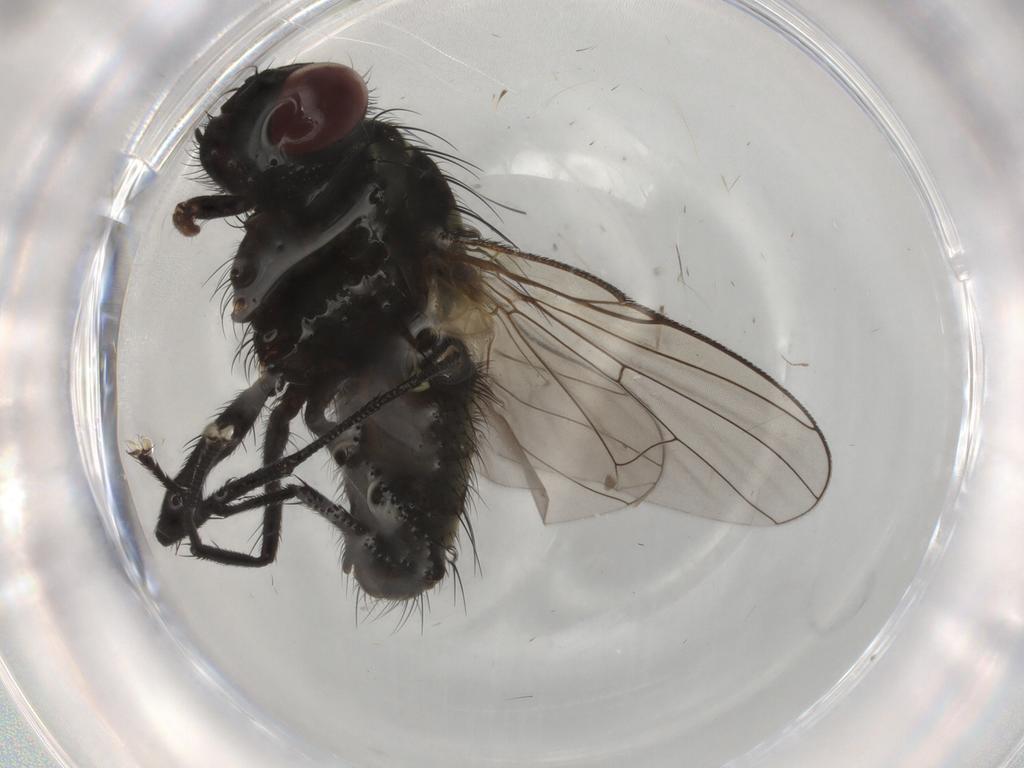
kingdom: Animalia
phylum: Arthropoda
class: Insecta
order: Diptera
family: Muscidae
